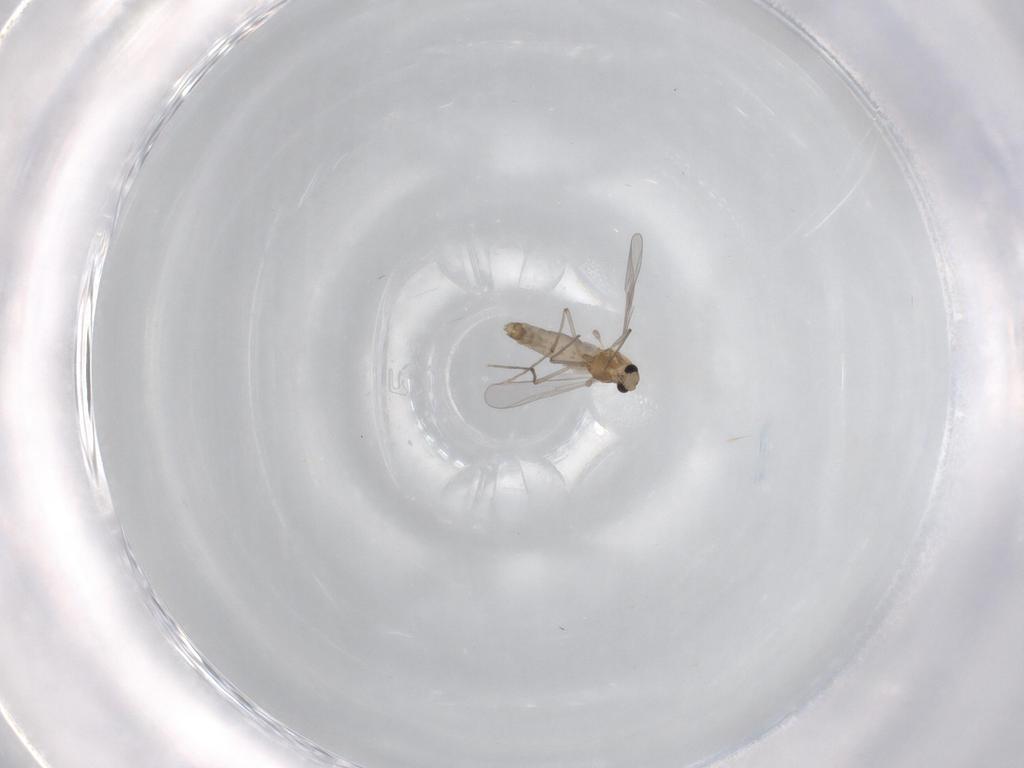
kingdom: Animalia
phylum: Arthropoda
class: Insecta
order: Diptera
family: Chironomidae
